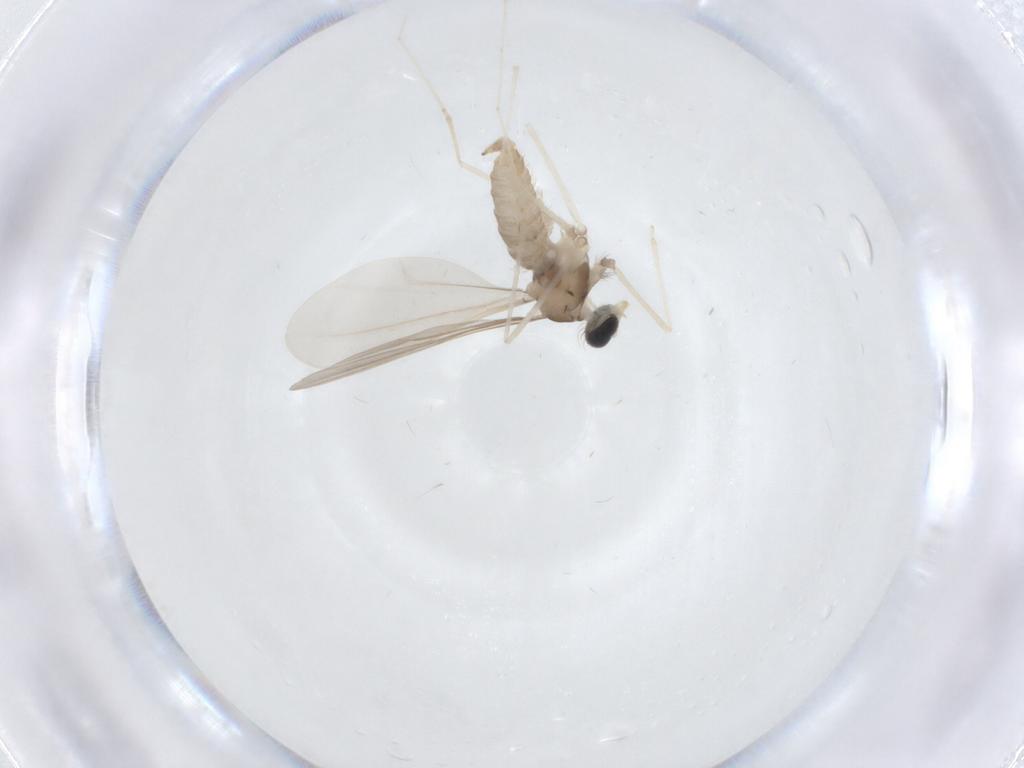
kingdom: Animalia
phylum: Arthropoda
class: Insecta
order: Diptera
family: Cecidomyiidae
